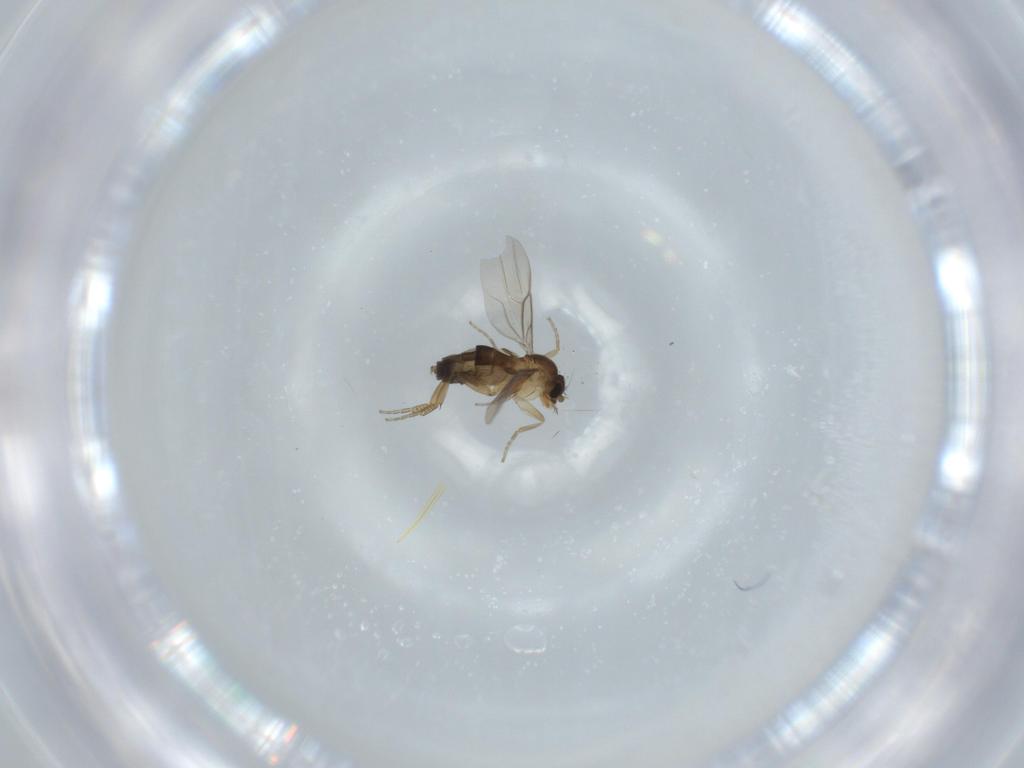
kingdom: Animalia
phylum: Arthropoda
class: Insecta
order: Diptera
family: Phoridae
